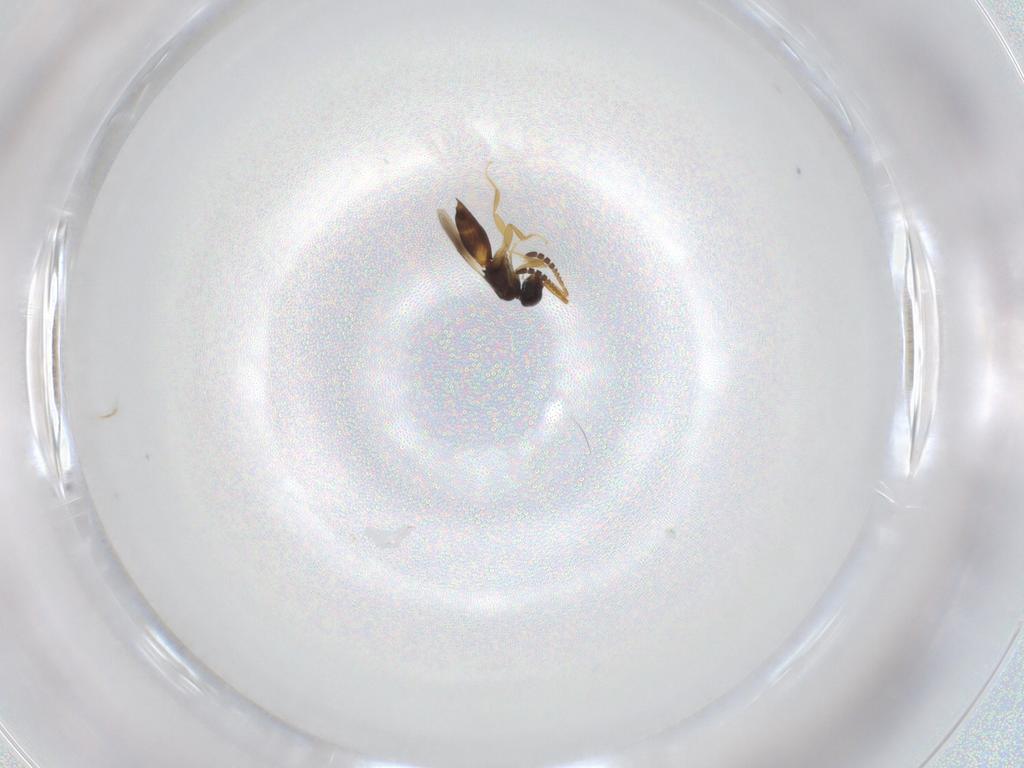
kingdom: Animalia
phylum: Arthropoda
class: Insecta
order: Hymenoptera
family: Ceraphronidae
